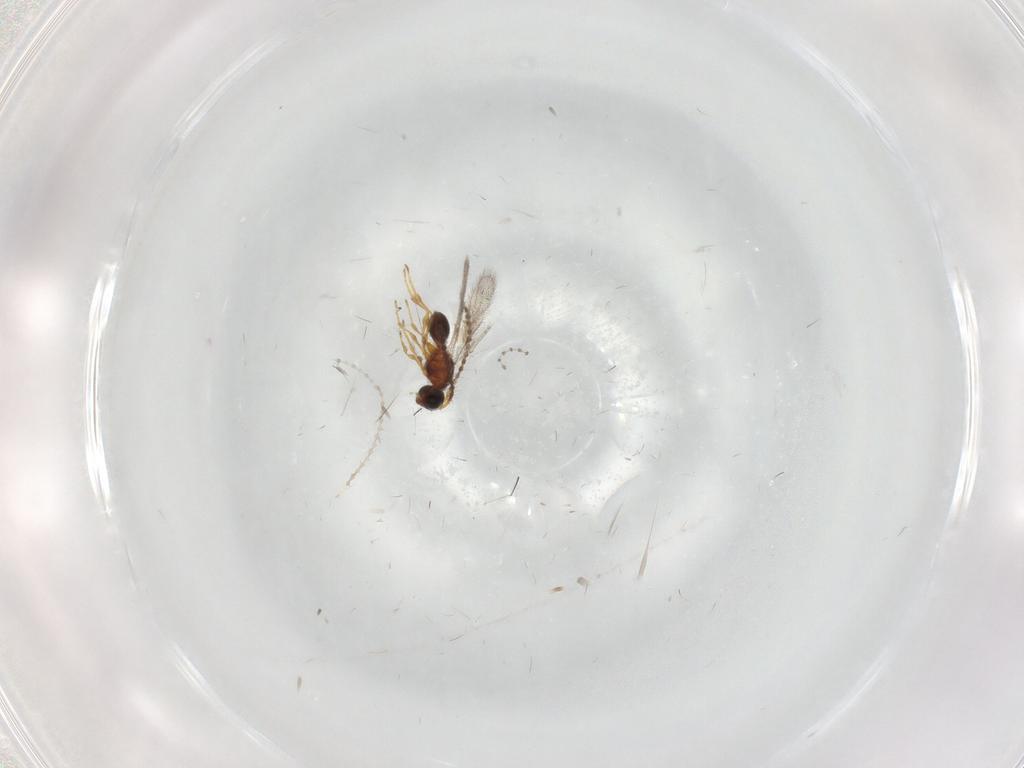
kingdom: Animalia
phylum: Arthropoda
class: Insecta
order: Hymenoptera
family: Diapriidae
